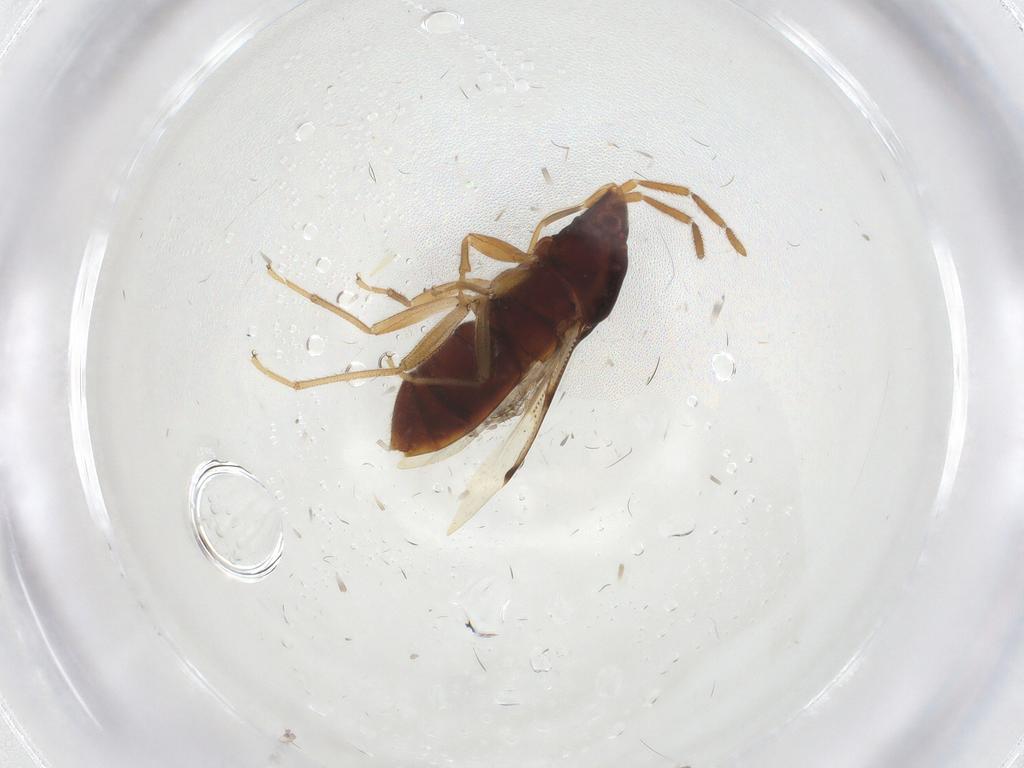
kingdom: Animalia
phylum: Arthropoda
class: Insecta
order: Hemiptera
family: Rhyparochromidae
